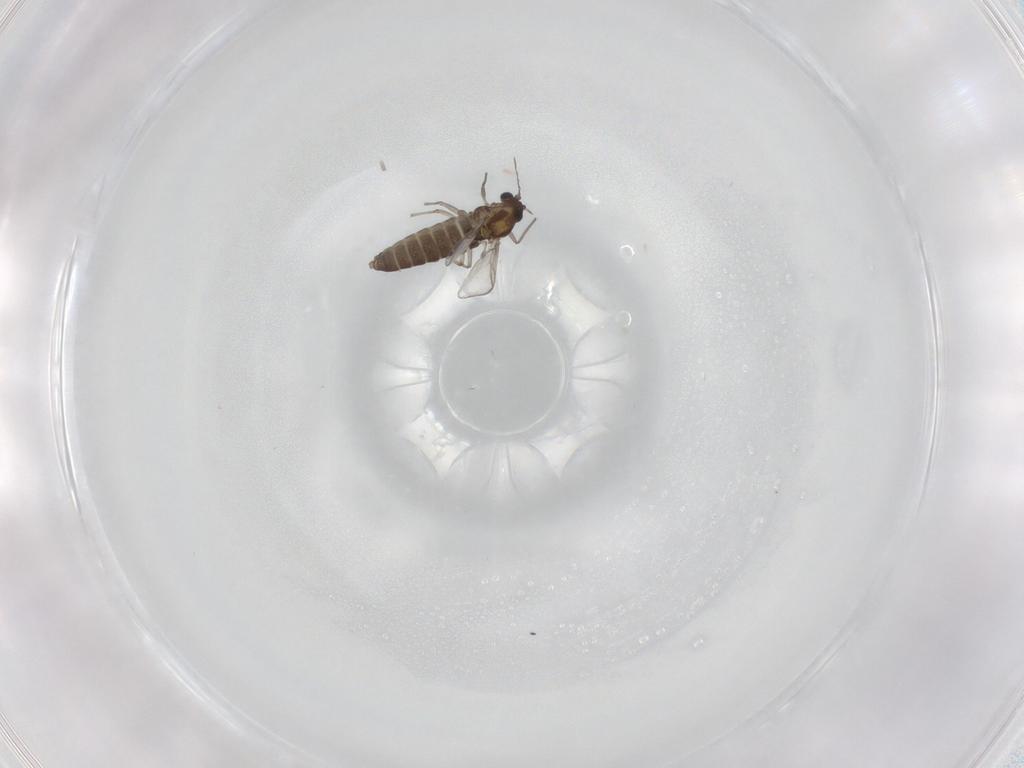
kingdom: Animalia
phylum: Arthropoda
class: Insecta
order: Diptera
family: Chironomidae
